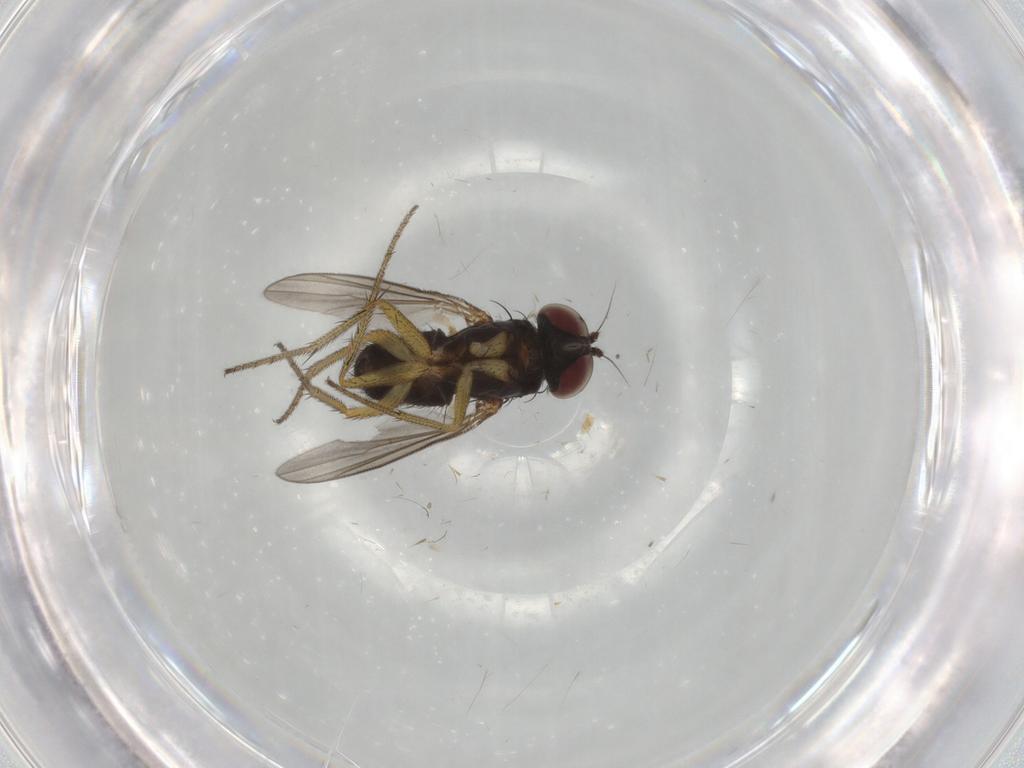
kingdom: Animalia
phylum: Arthropoda
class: Insecta
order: Diptera
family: Dolichopodidae
